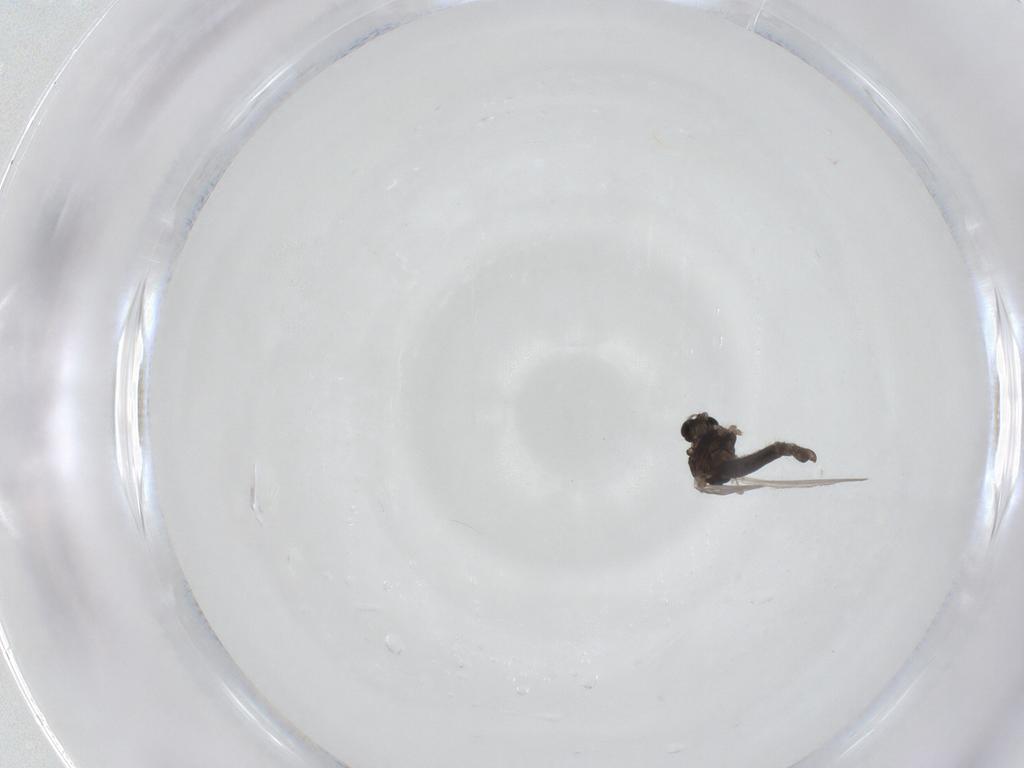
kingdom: Animalia
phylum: Arthropoda
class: Insecta
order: Diptera
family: Chironomidae
